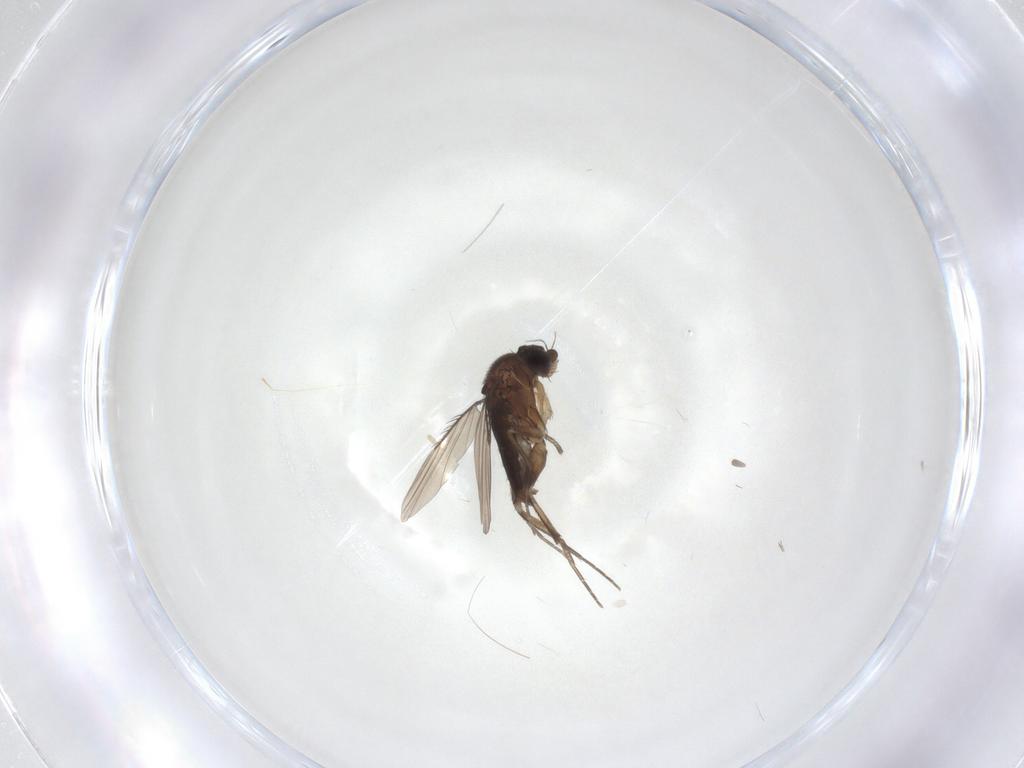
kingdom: Animalia
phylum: Arthropoda
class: Insecta
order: Diptera
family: Phoridae
